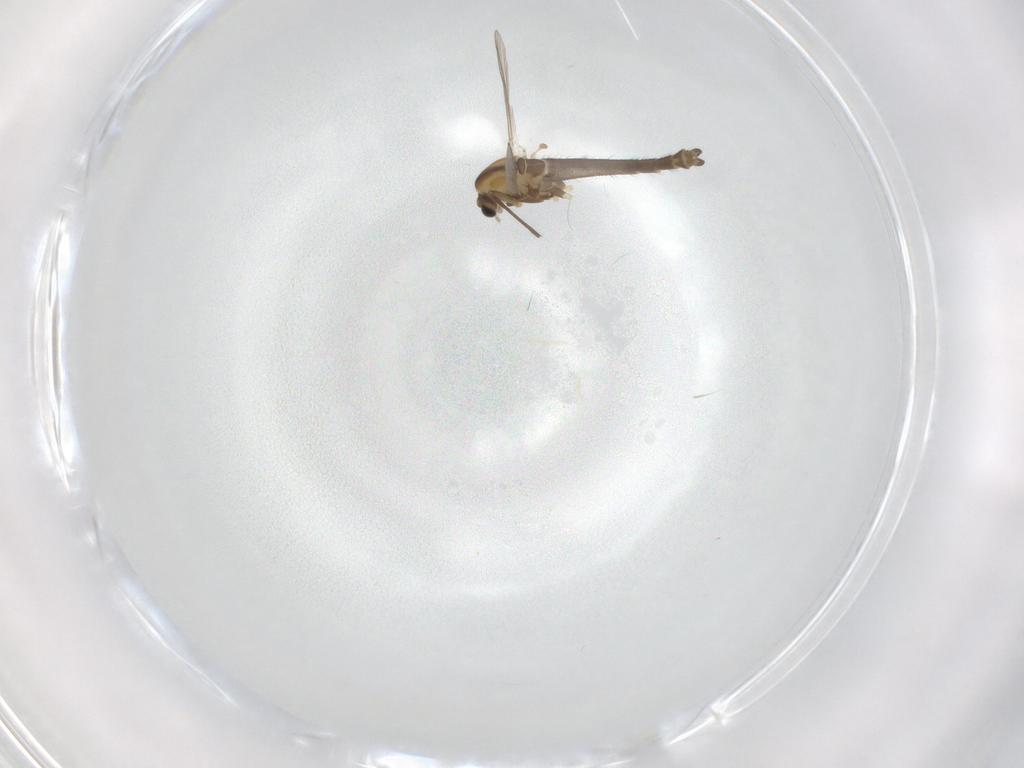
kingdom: Animalia
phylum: Arthropoda
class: Insecta
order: Diptera
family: Chironomidae
